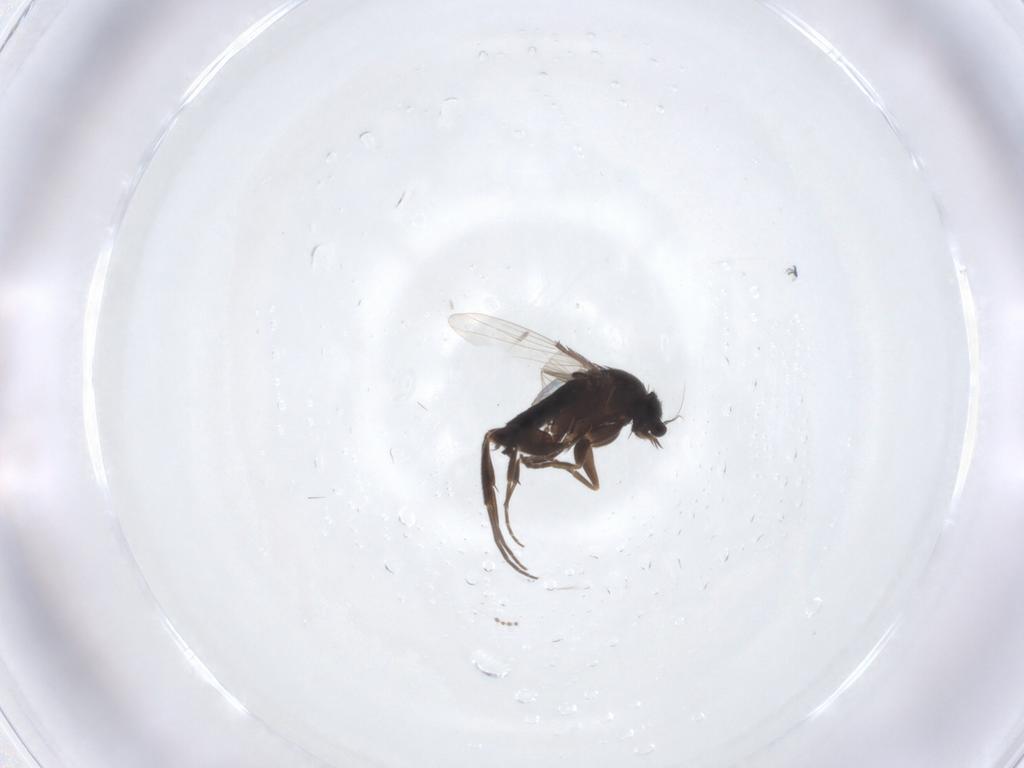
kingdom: Animalia
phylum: Arthropoda
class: Insecta
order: Diptera
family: Phoridae
